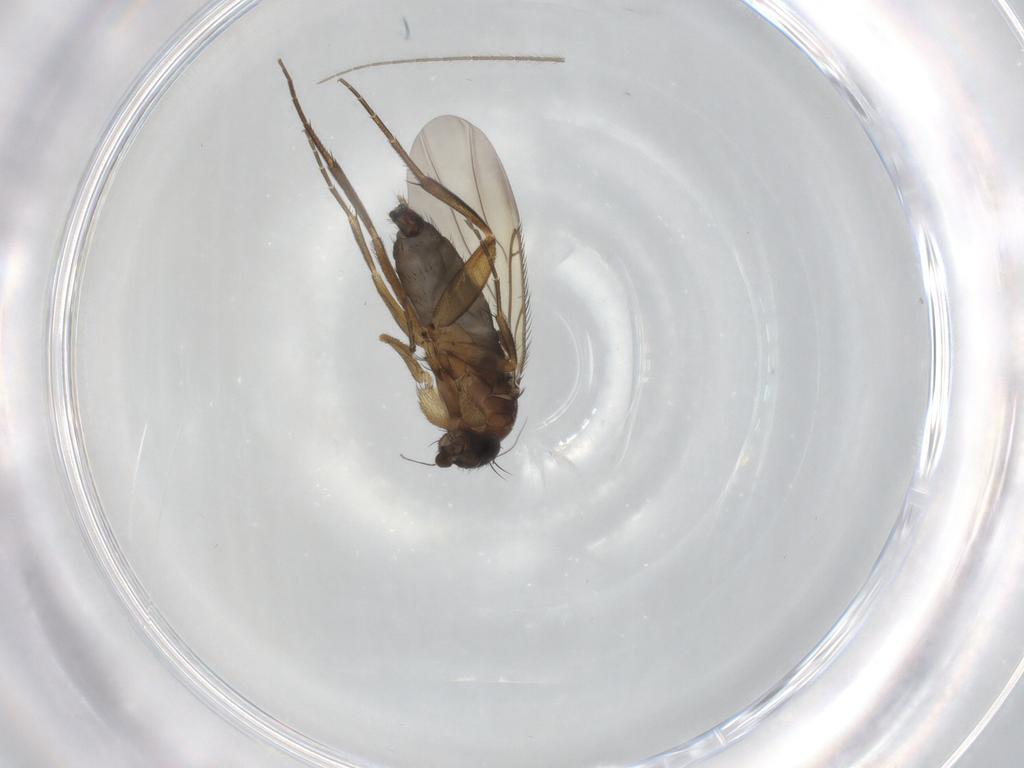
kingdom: Animalia
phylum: Arthropoda
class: Insecta
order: Diptera
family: Phoridae
